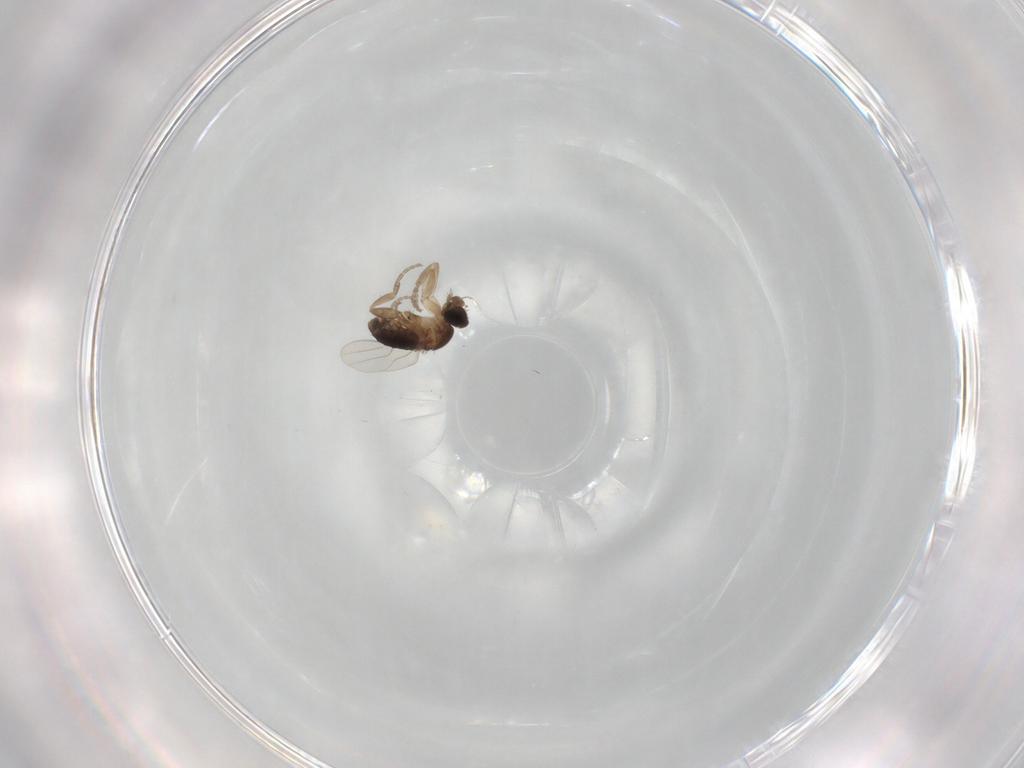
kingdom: Animalia
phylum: Arthropoda
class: Insecta
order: Diptera
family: Phoridae
